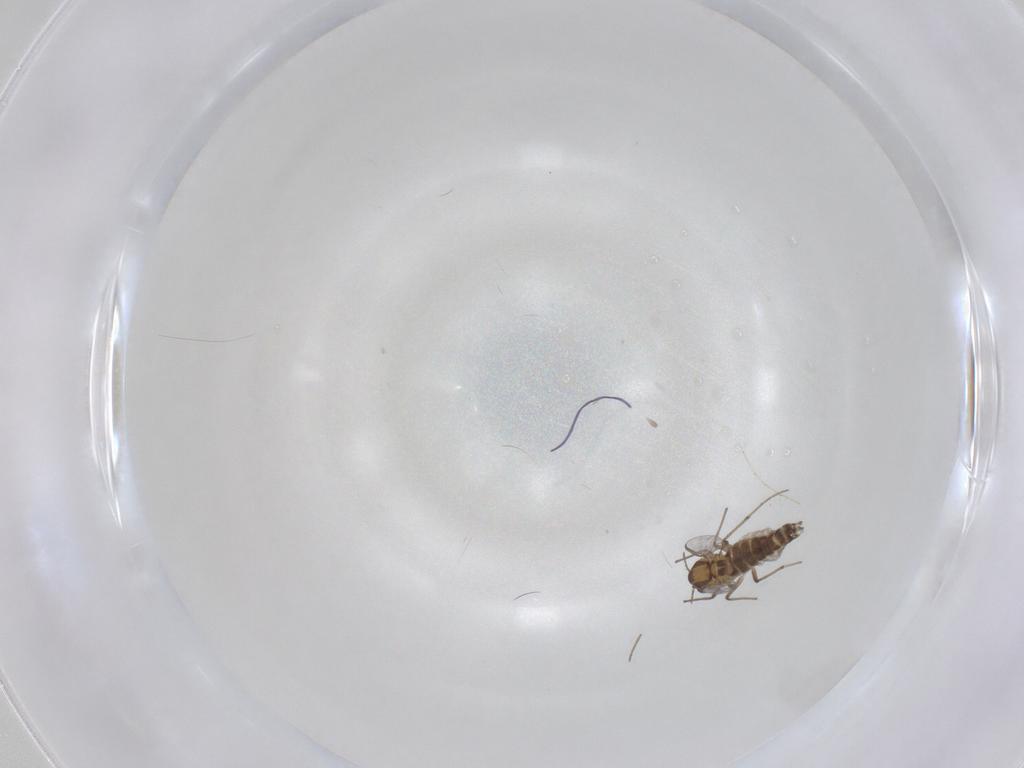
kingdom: Animalia
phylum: Arthropoda
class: Insecta
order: Diptera
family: Chironomidae
